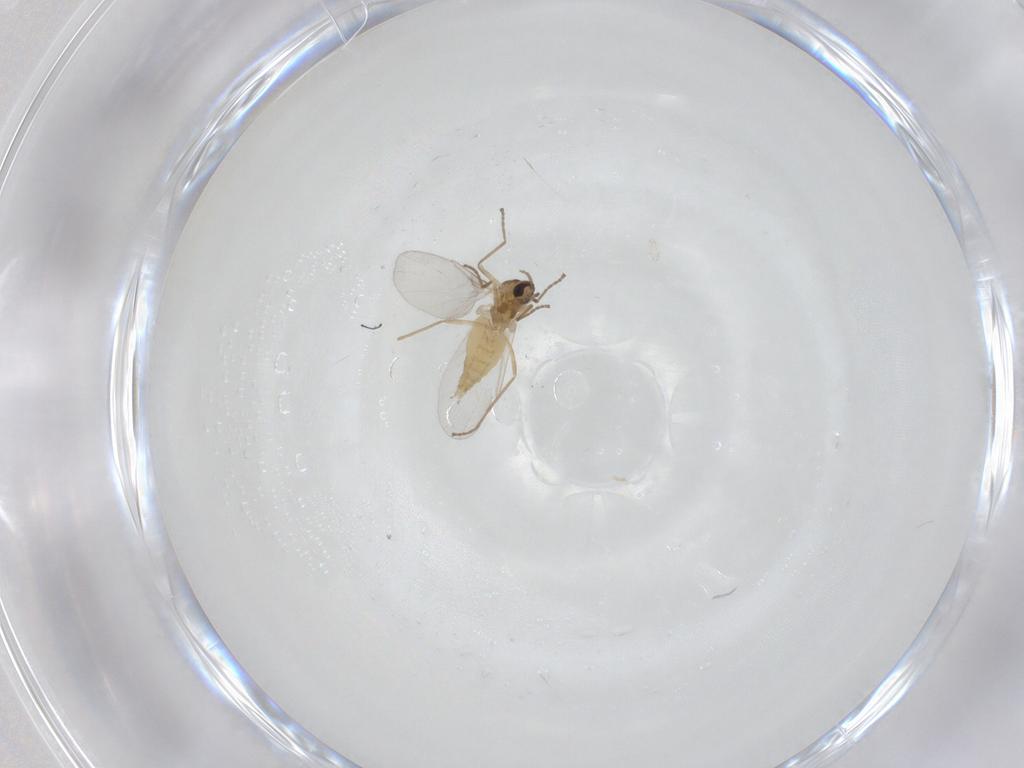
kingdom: Animalia
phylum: Arthropoda
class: Insecta
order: Diptera
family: Cecidomyiidae
